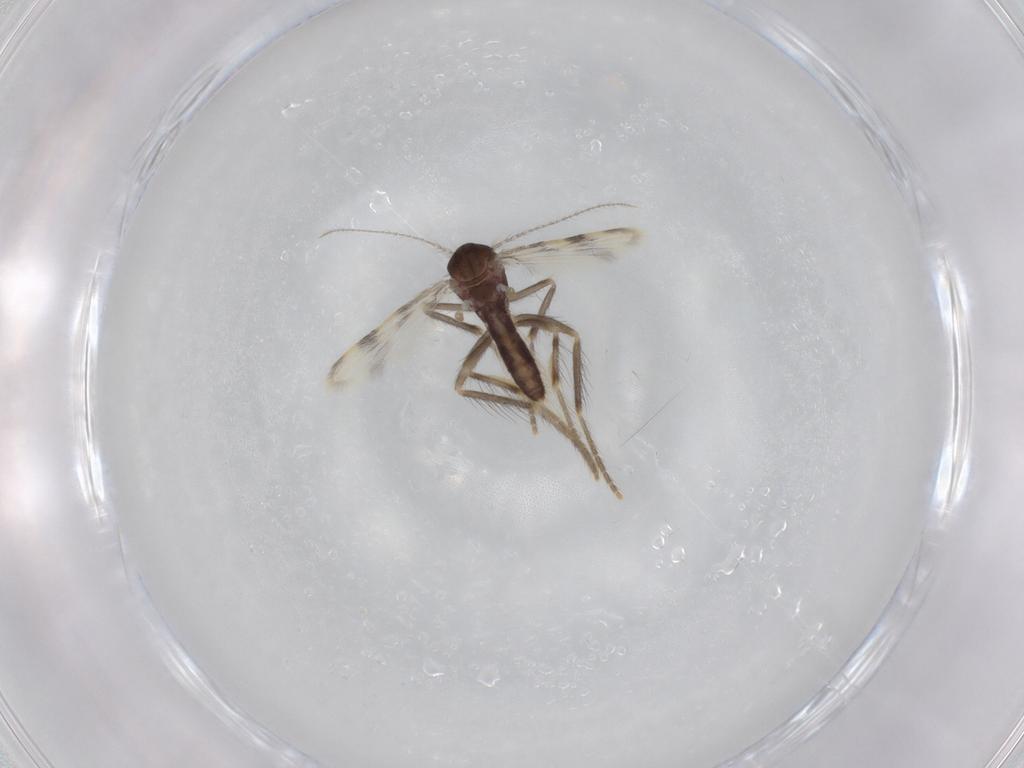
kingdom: Animalia
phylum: Arthropoda
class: Insecta
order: Diptera
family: Corethrellidae
